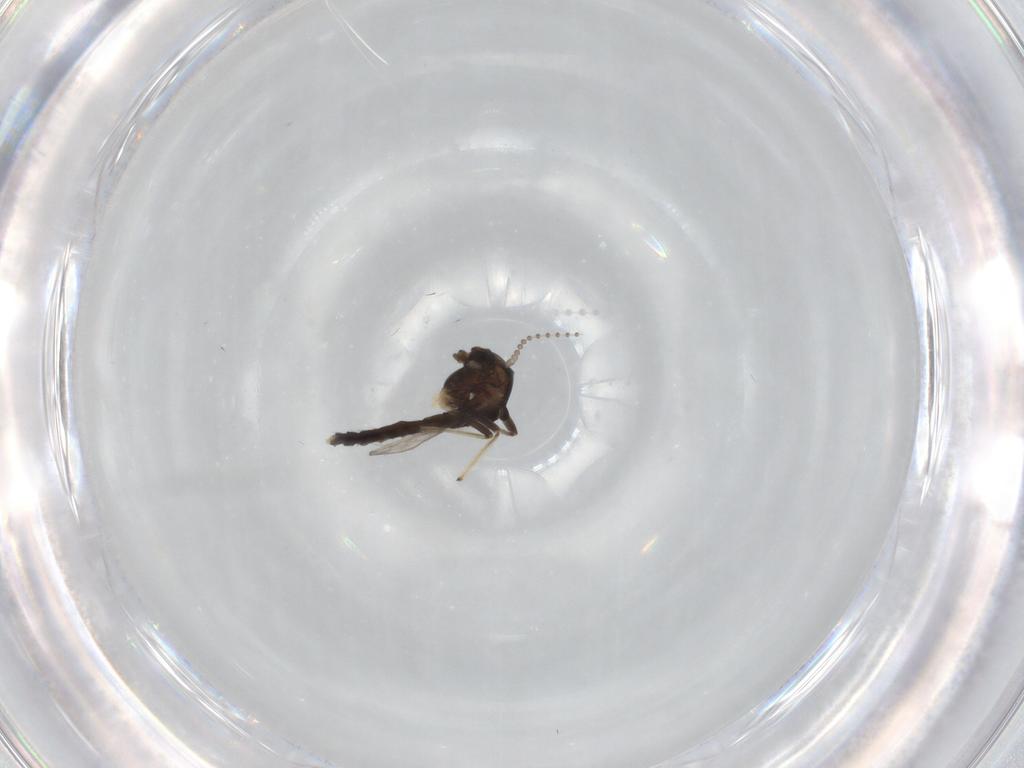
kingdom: Animalia
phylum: Arthropoda
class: Insecta
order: Diptera
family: Chironomidae
